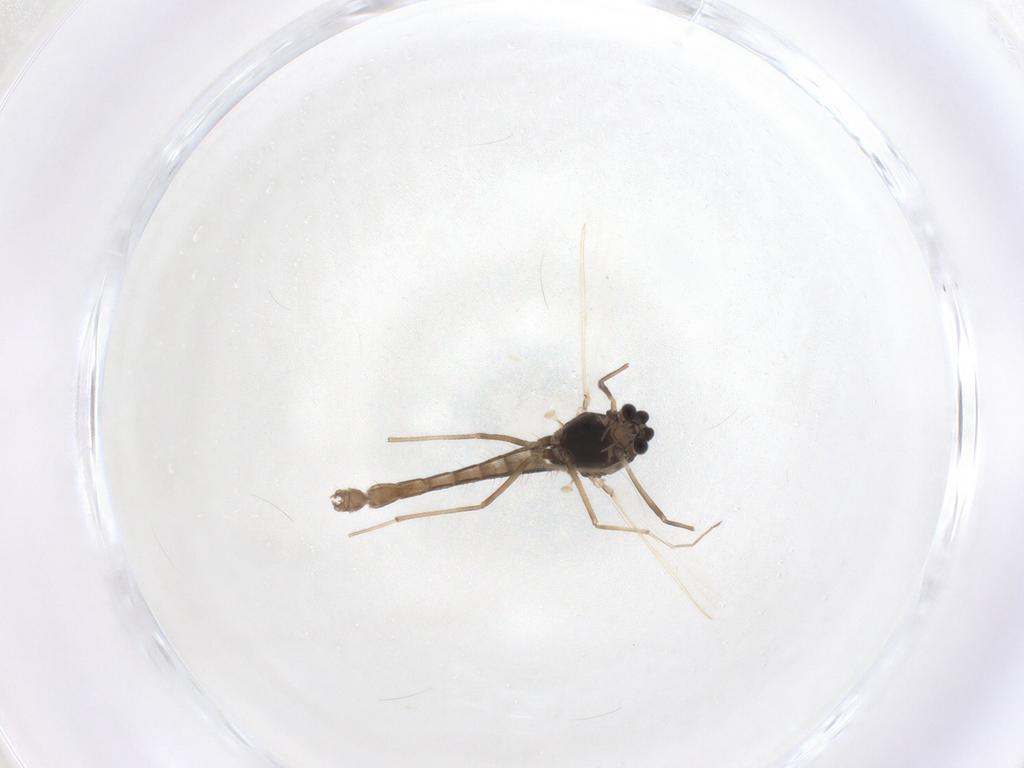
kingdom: Animalia
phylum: Arthropoda
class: Insecta
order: Diptera
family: Chironomidae
